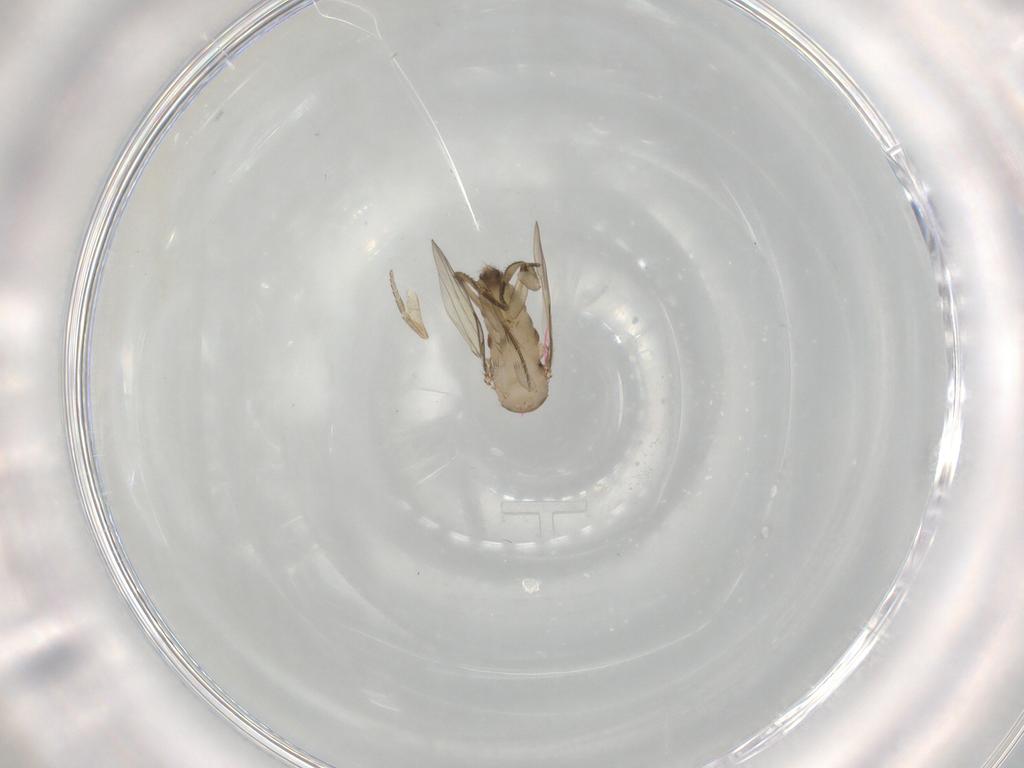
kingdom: Animalia
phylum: Arthropoda
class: Insecta
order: Diptera
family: Phoridae
